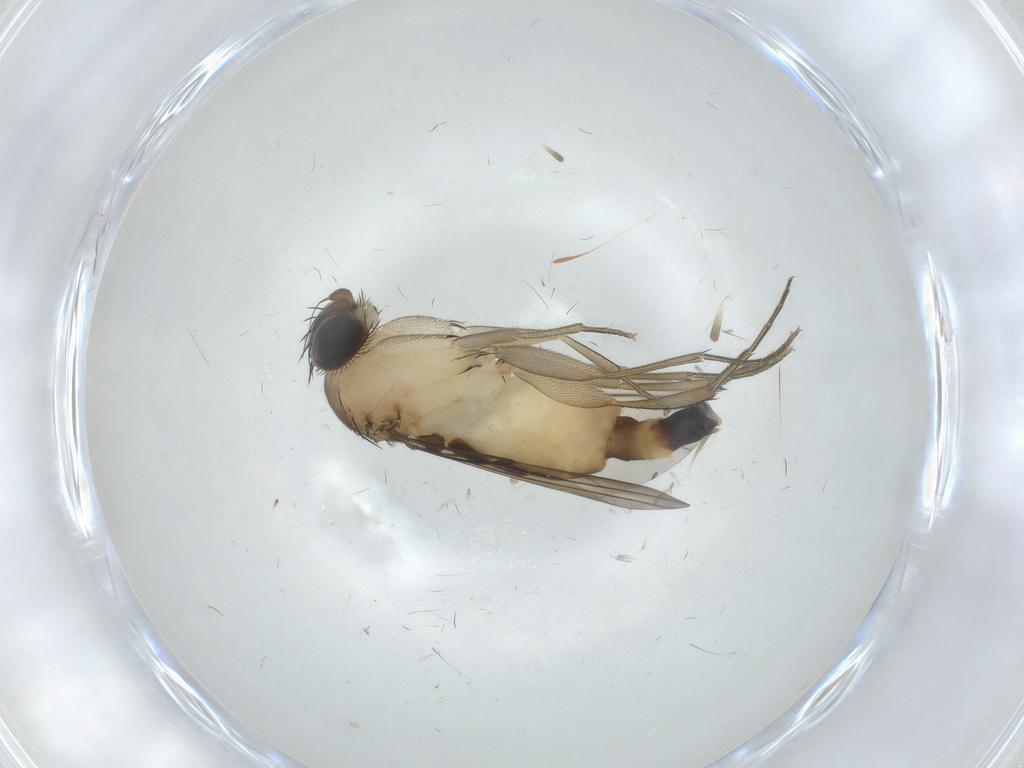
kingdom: Animalia
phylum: Arthropoda
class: Insecta
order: Diptera
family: Phoridae
